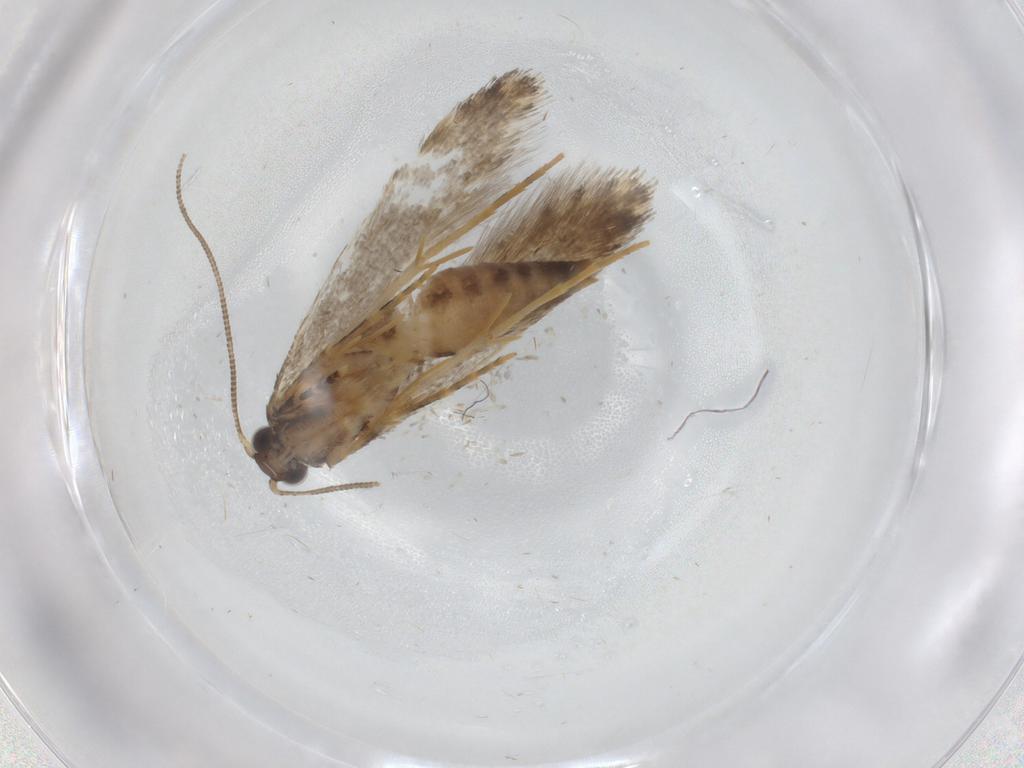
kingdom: Animalia
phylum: Arthropoda
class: Insecta
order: Lepidoptera
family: Tineidae
